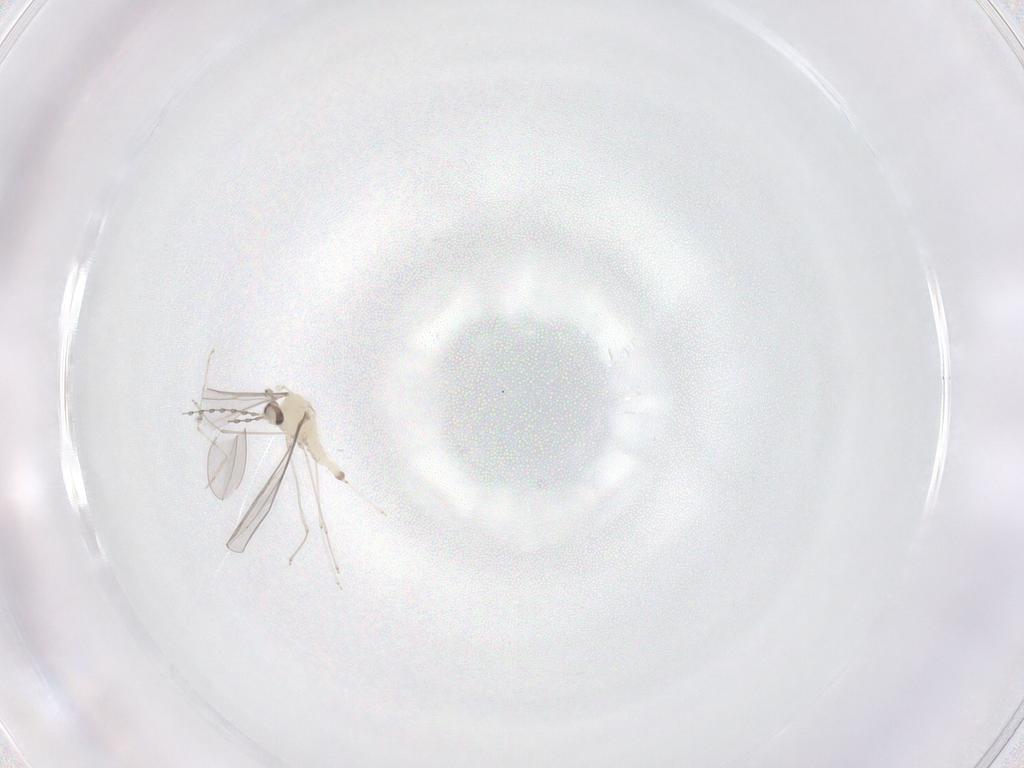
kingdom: Animalia
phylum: Arthropoda
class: Insecta
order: Diptera
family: Cecidomyiidae
